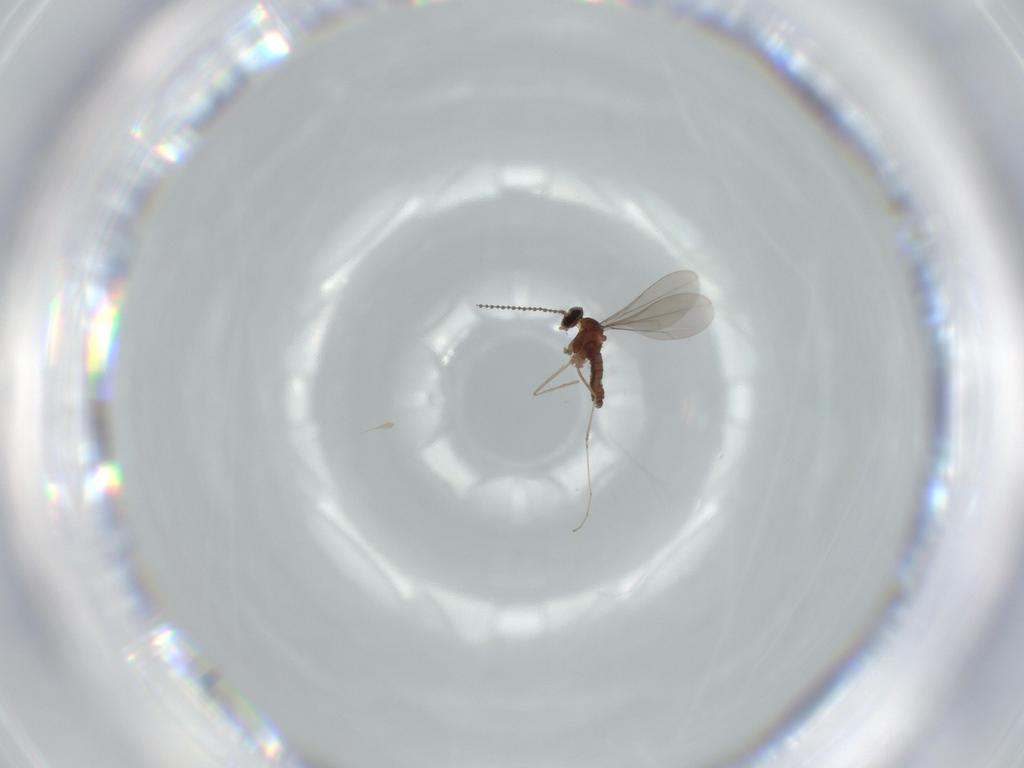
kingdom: Animalia
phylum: Arthropoda
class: Insecta
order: Diptera
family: Cecidomyiidae
